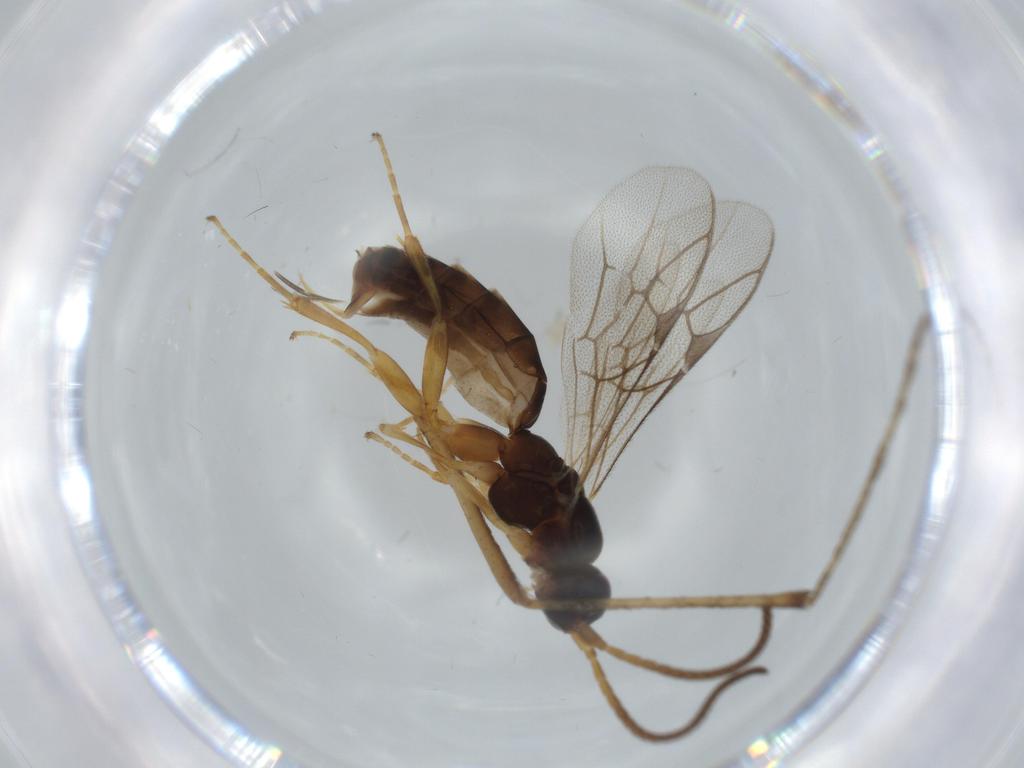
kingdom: Animalia
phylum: Arthropoda
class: Insecta
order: Hymenoptera
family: Ichneumonidae
